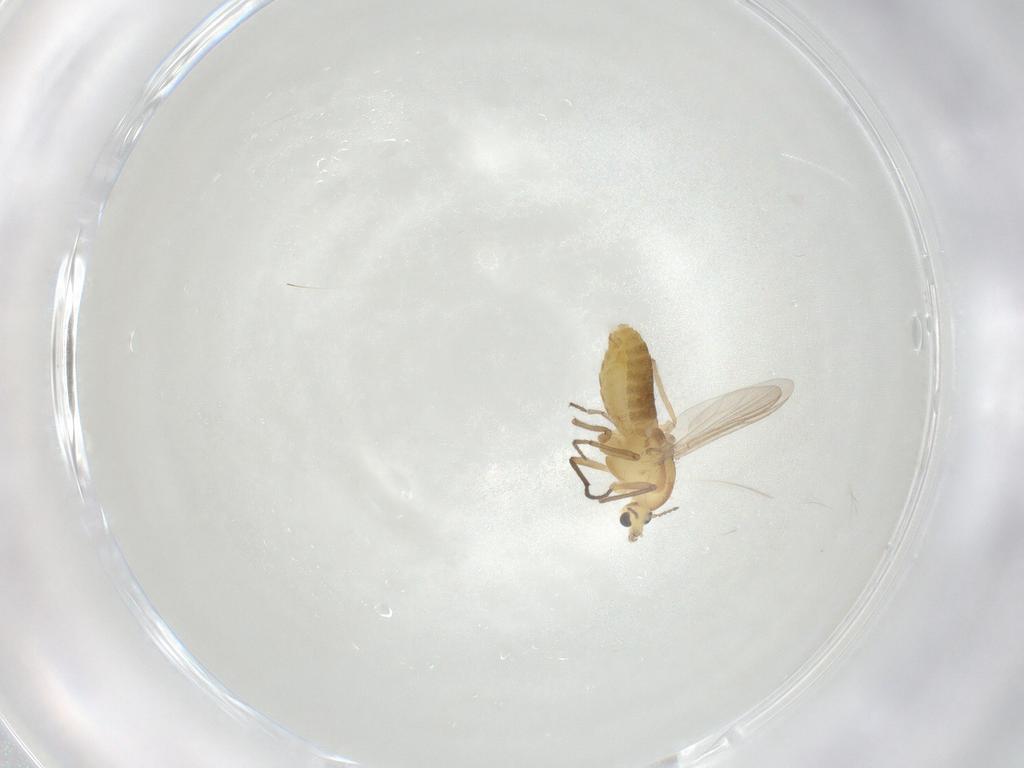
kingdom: Animalia
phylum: Arthropoda
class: Insecta
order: Diptera
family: Chironomidae
